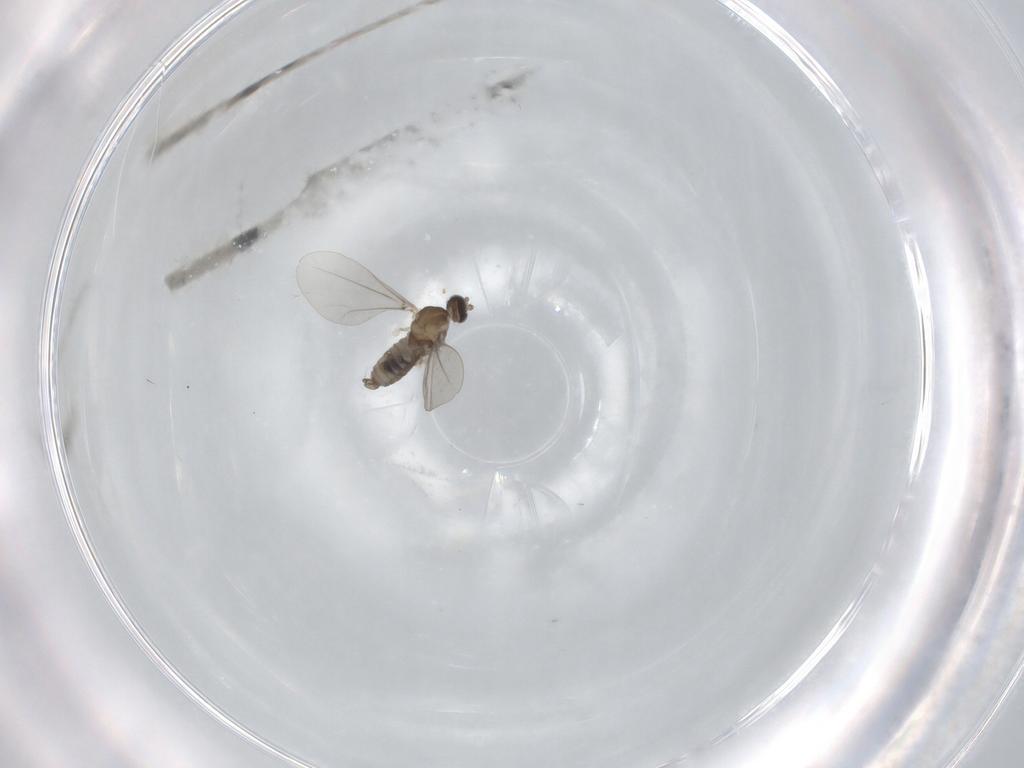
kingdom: Animalia
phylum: Arthropoda
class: Insecta
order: Diptera
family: Cecidomyiidae
